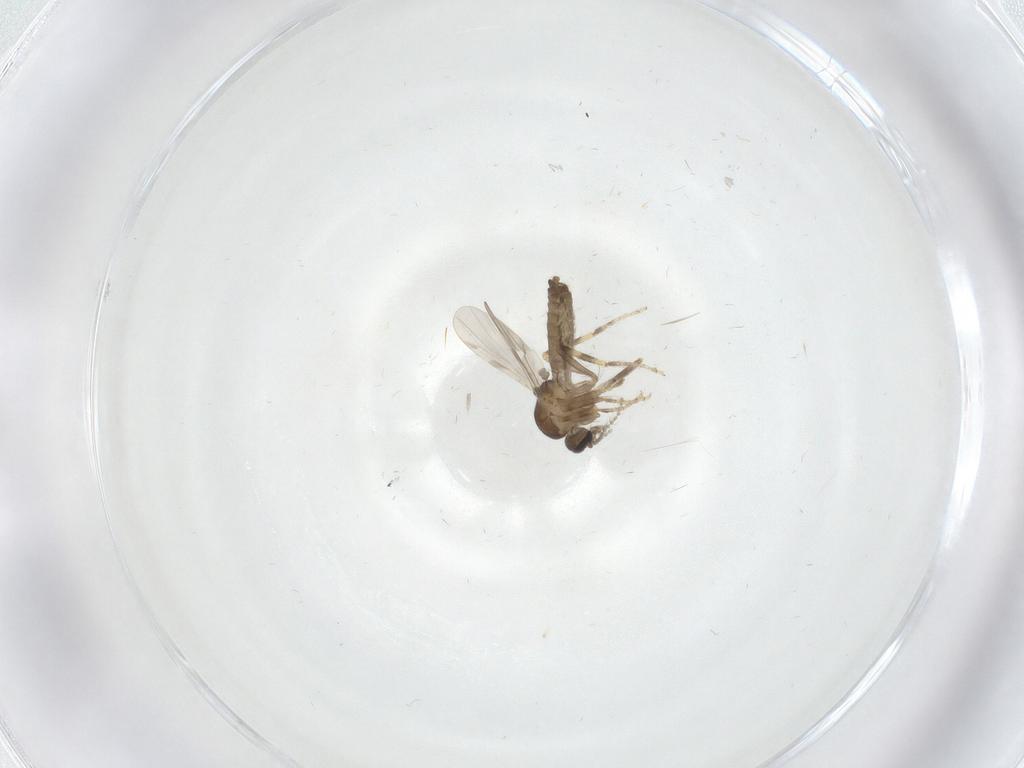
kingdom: Animalia
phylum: Arthropoda
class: Insecta
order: Diptera
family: Ceratopogonidae
